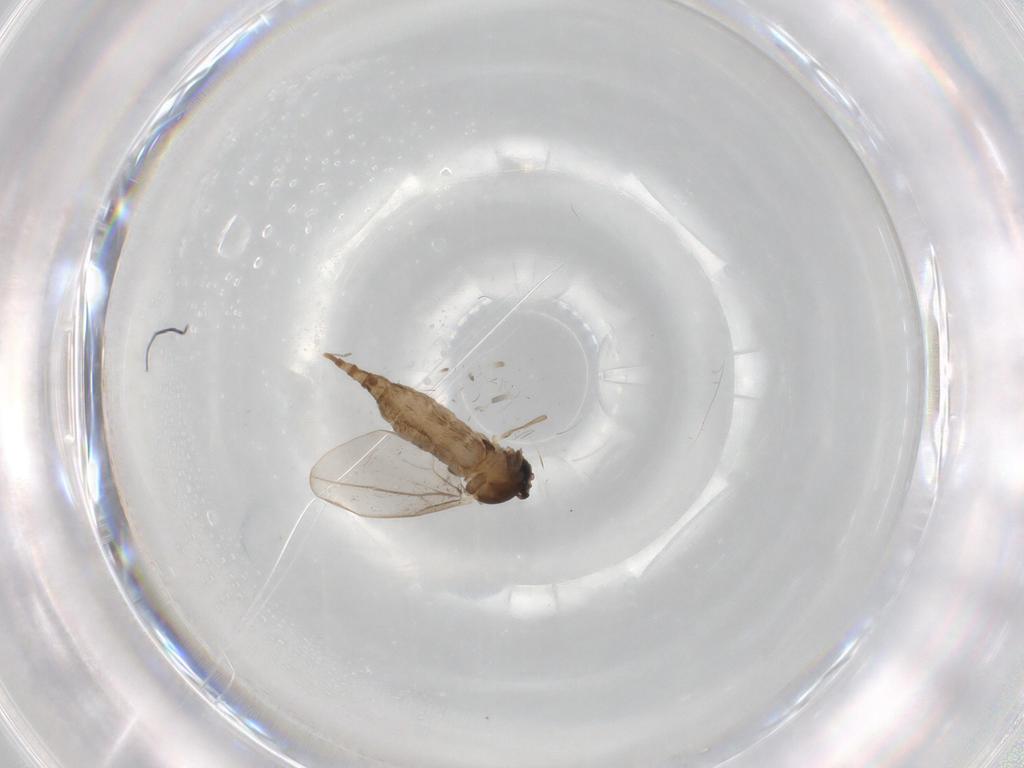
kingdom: Animalia
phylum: Arthropoda
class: Insecta
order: Diptera
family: Cecidomyiidae
